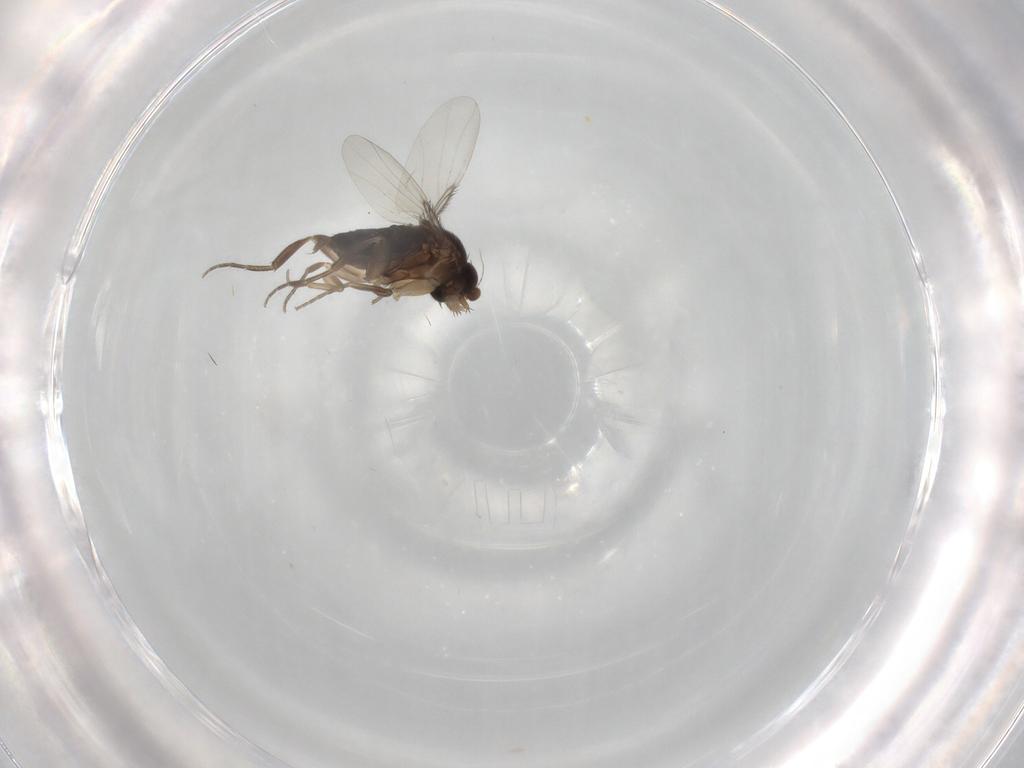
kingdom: Animalia
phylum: Arthropoda
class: Insecta
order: Diptera
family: Phoridae
